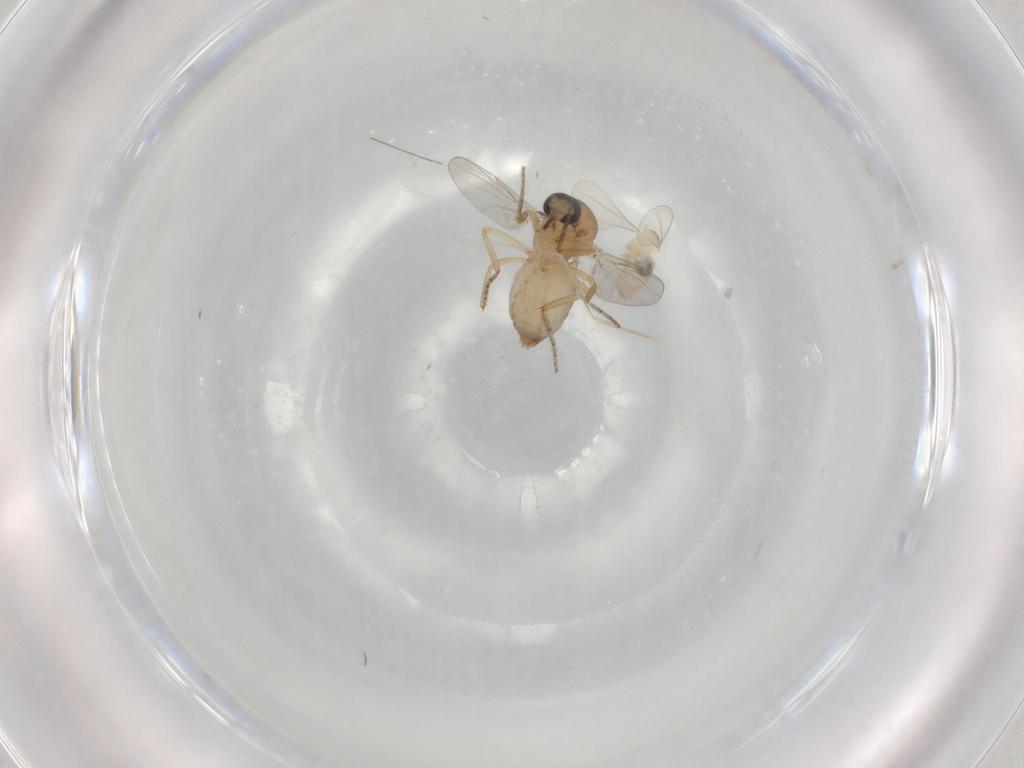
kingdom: Animalia
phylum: Arthropoda
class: Insecta
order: Diptera
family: Ceratopogonidae
